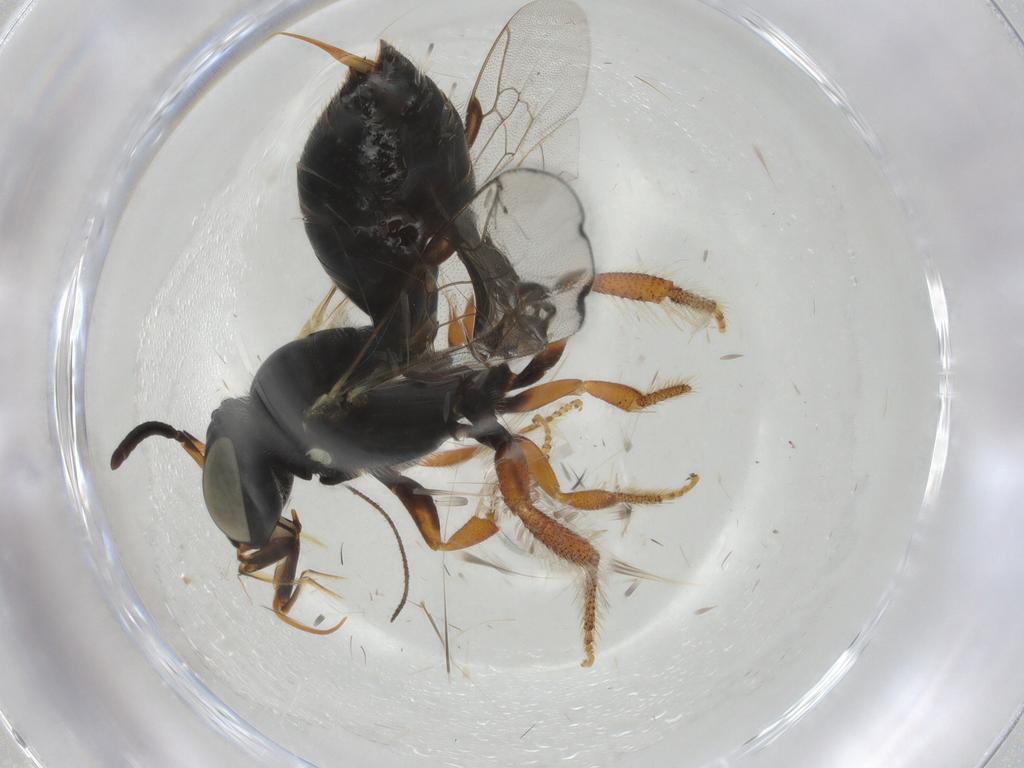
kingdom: Animalia
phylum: Arthropoda
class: Insecta
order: Hymenoptera
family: Apidae
